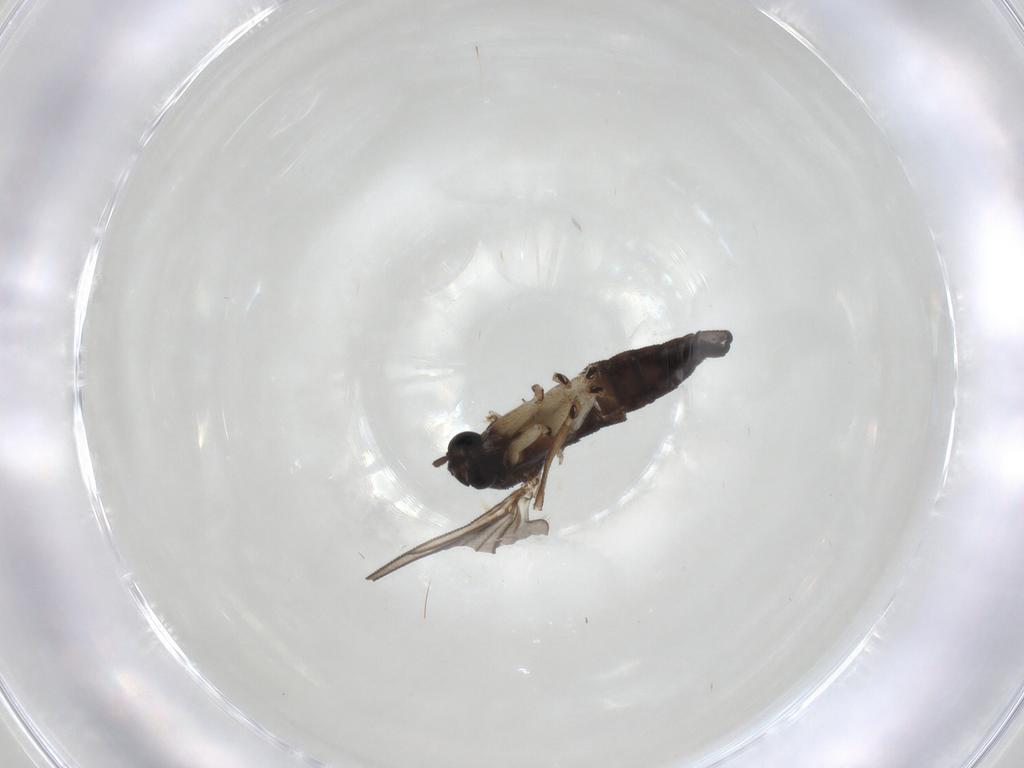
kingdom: Animalia
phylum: Arthropoda
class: Insecta
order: Diptera
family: Sciaridae
